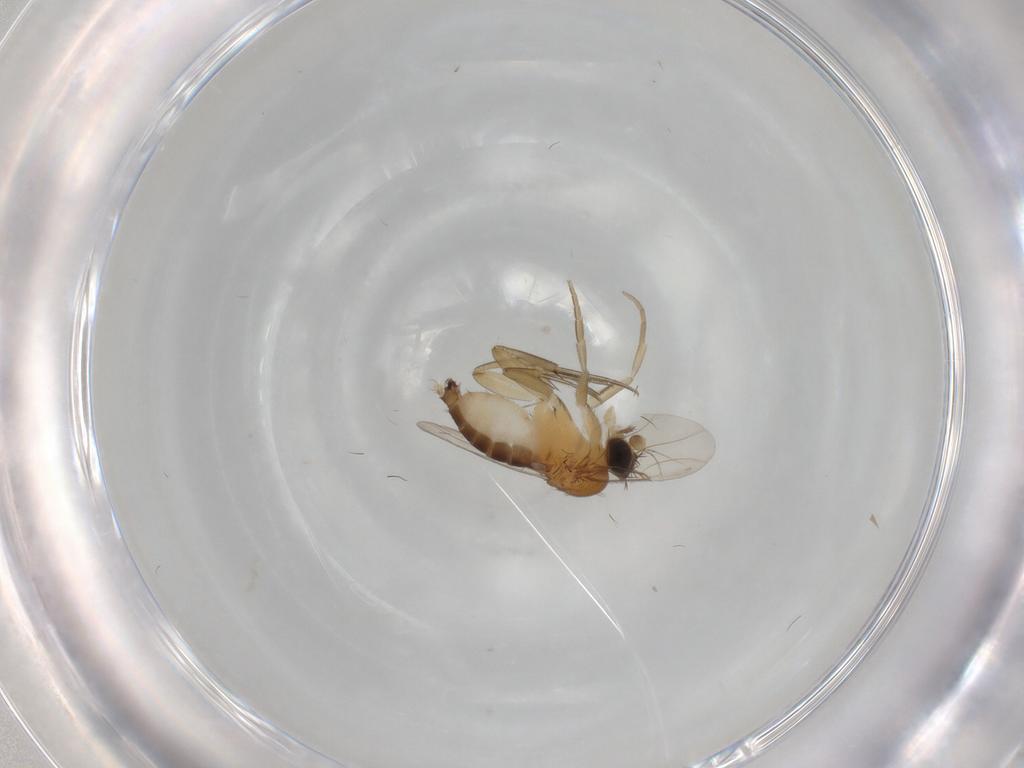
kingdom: Animalia
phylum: Arthropoda
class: Insecta
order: Diptera
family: Phoridae
